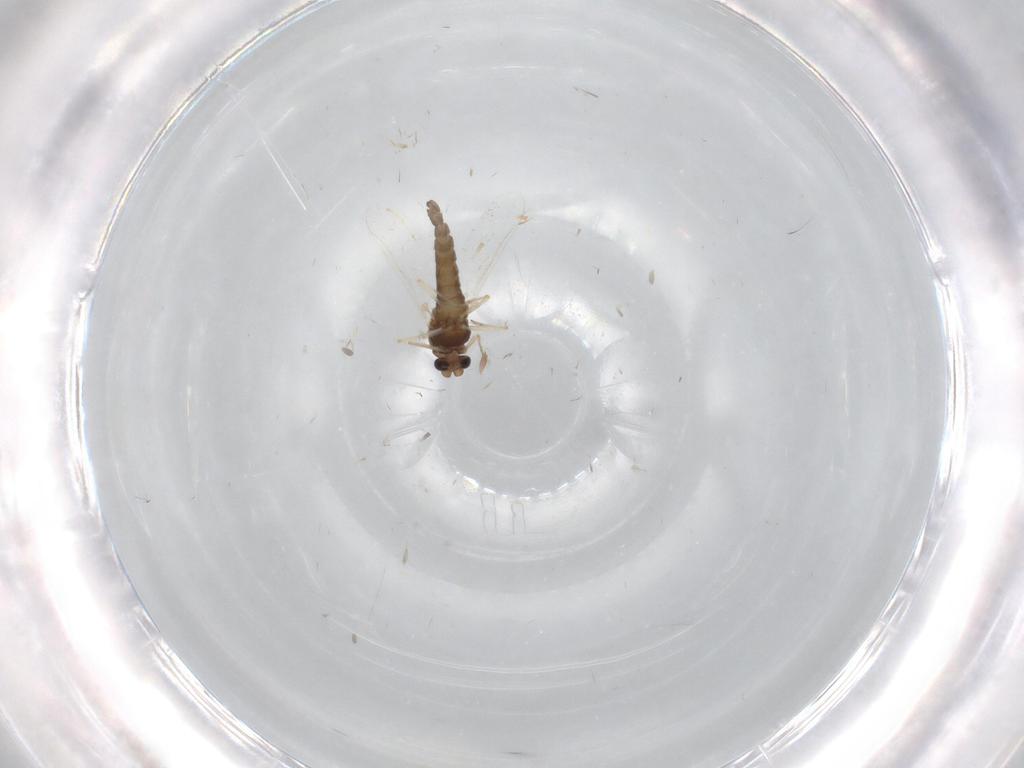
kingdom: Animalia
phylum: Arthropoda
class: Insecta
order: Diptera
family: Chironomidae
